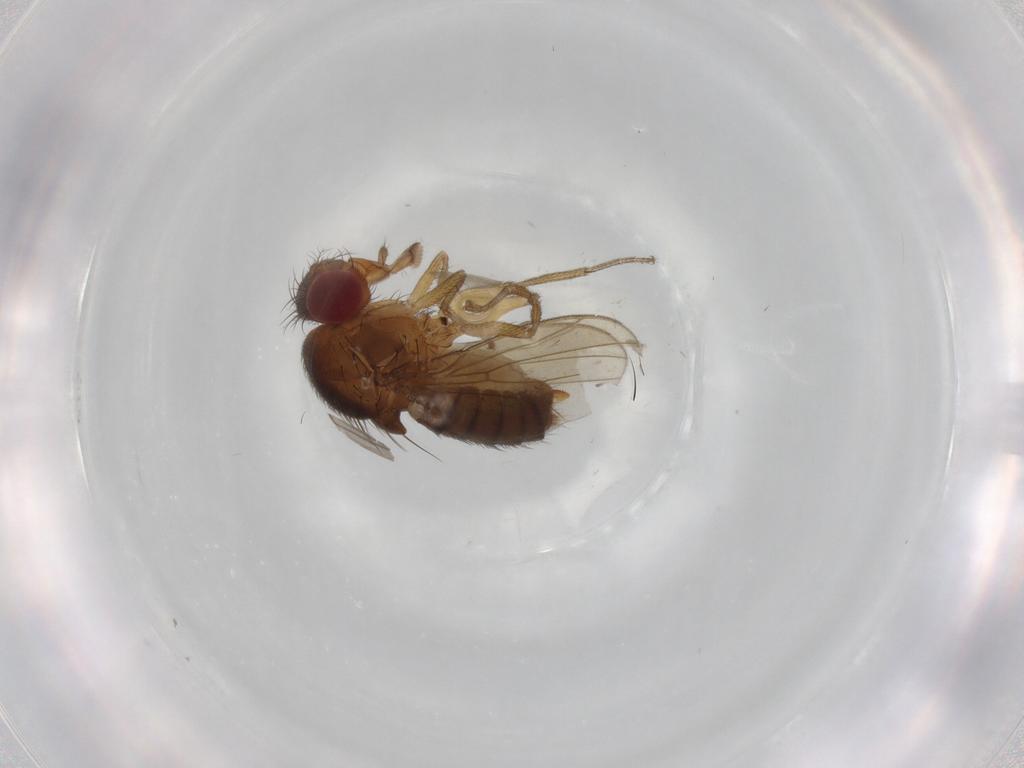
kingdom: Animalia
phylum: Arthropoda
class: Insecta
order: Diptera
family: Drosophilidae
